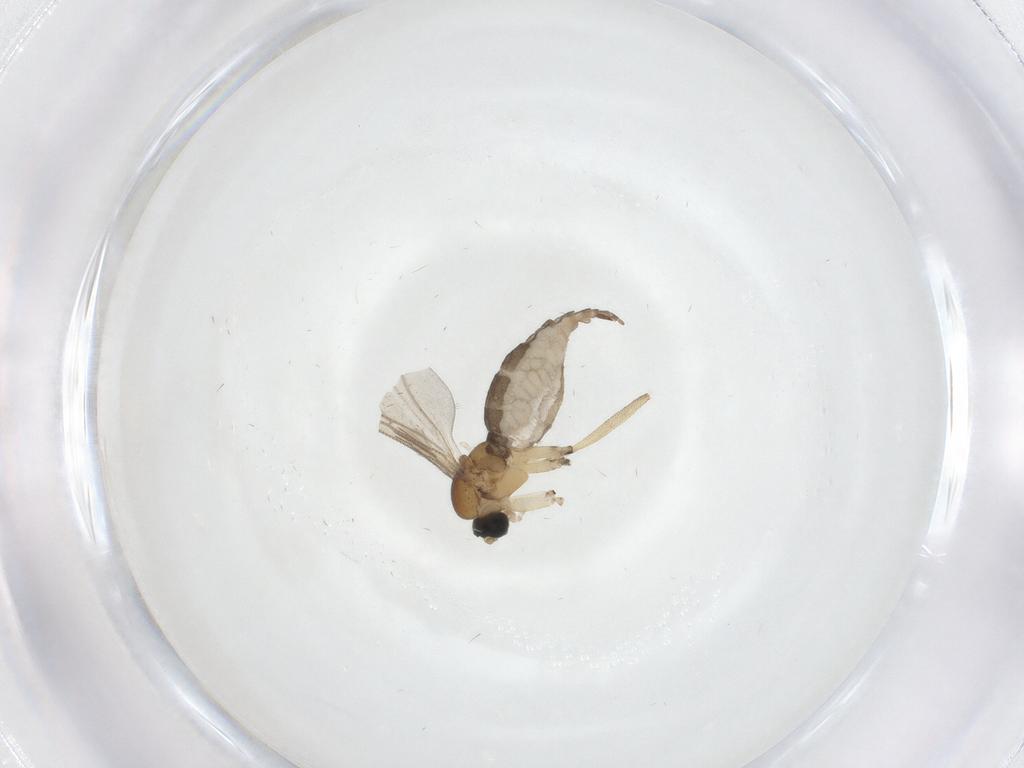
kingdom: Animalia
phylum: Arthropoda
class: Insecta
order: Diptera
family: Sciaridae
